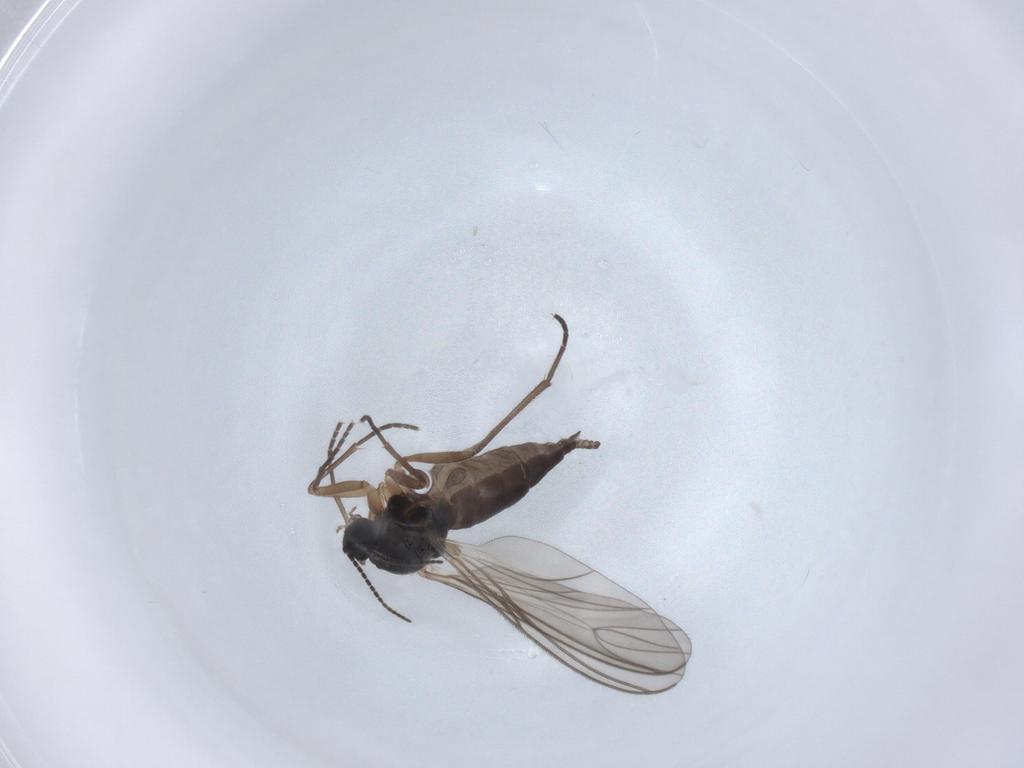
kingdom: Animalia
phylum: Arthropoda
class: Insecta
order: Diptera
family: Sciaridae
